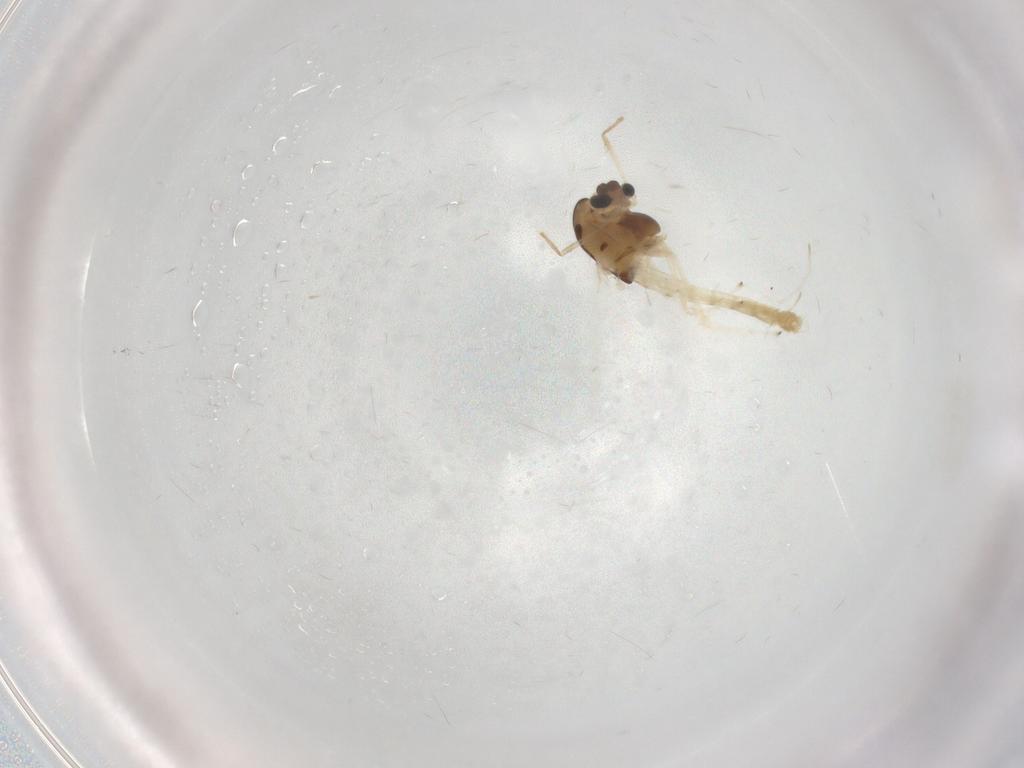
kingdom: Animalia
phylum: Arthropoda
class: Insecta
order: Diptera
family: Chironomidae
